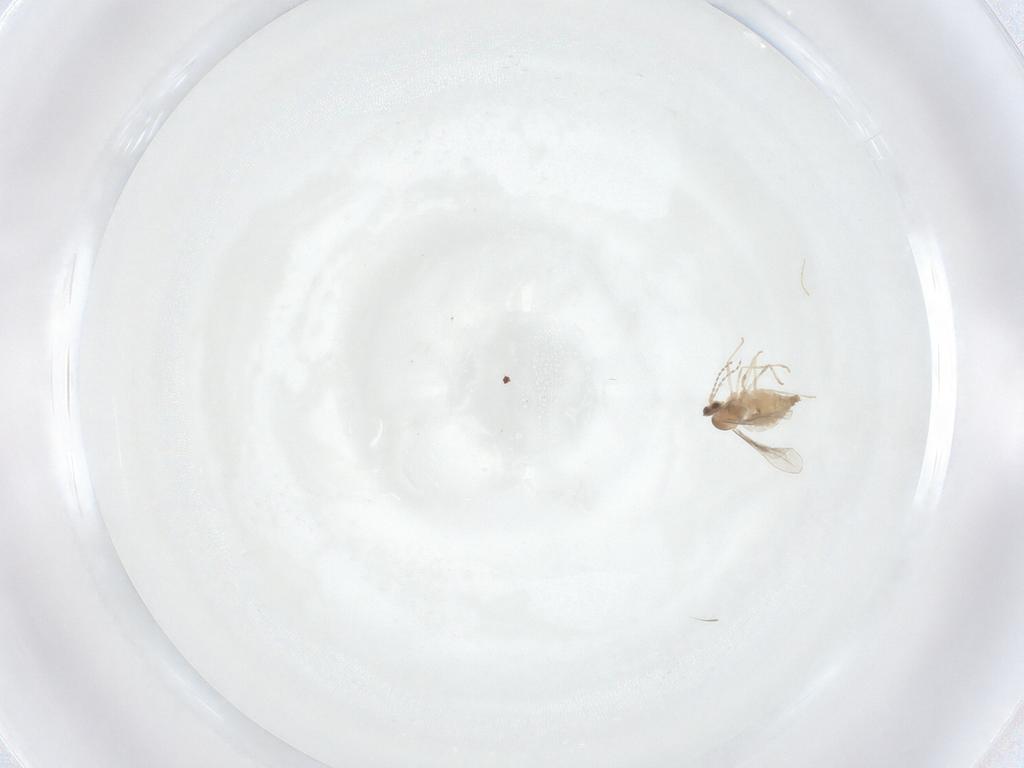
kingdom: Animalia
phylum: Arthropoda
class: Insecta
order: Diptera
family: Cecidomyiidae
